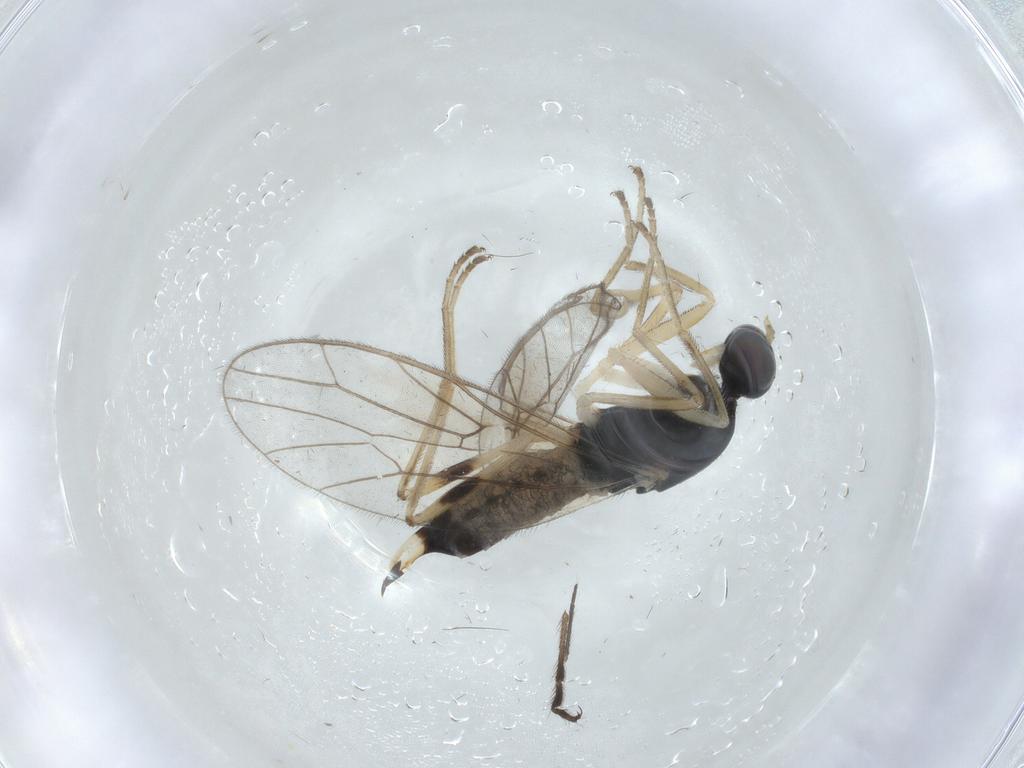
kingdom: Animalia
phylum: Arthropoda
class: Insecta
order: Diptera
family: Empididae
